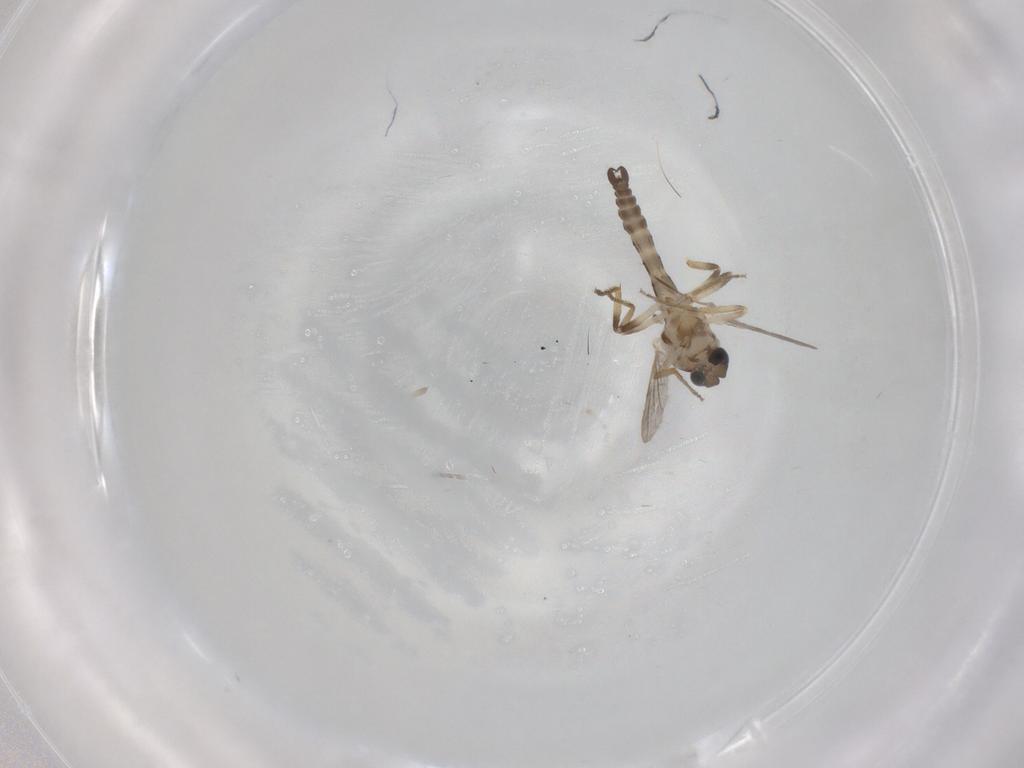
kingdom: Animalia
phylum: Arthropoda
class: Insecta
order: Diptera
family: Ceratopogonidae
